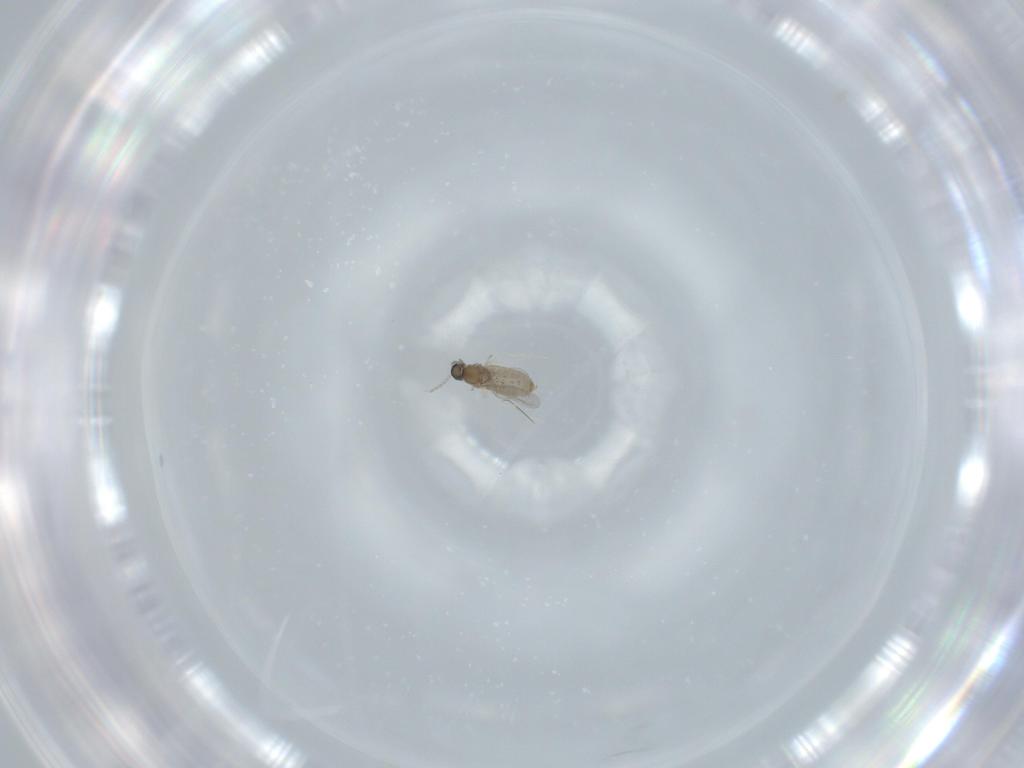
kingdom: Animalia
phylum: Arthropoda
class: Insecta
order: Diptera
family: Cecidomyiidae
